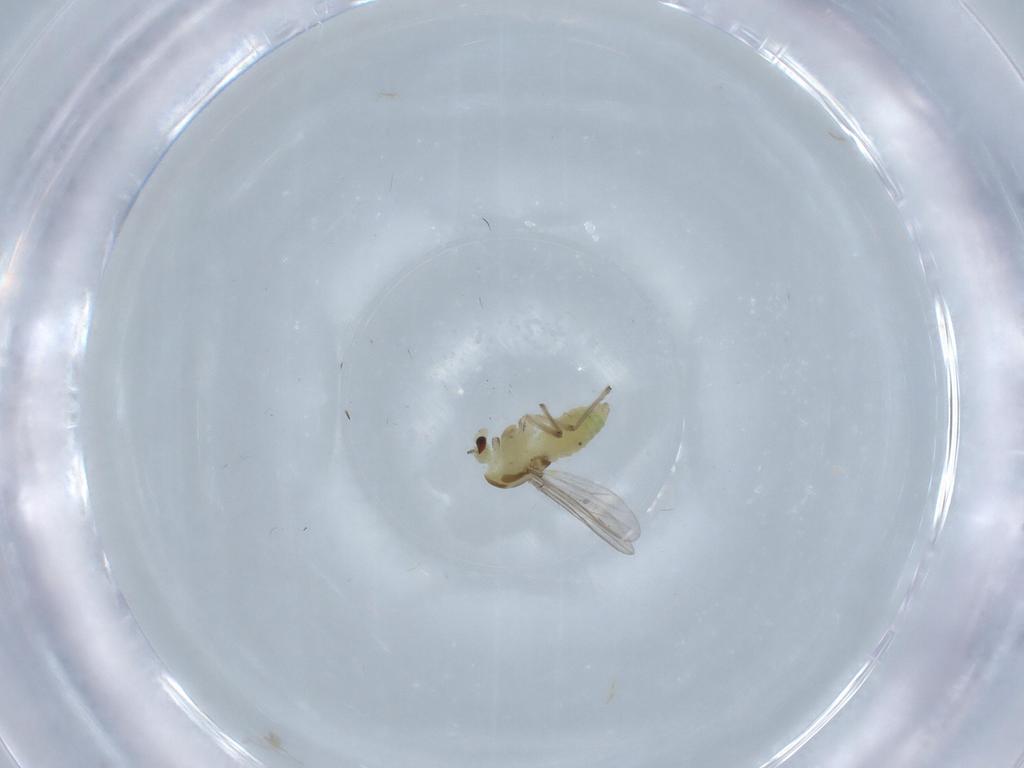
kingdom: Animalia
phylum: Arthropoda
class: Insecta
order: Diptera
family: Chironomidae
